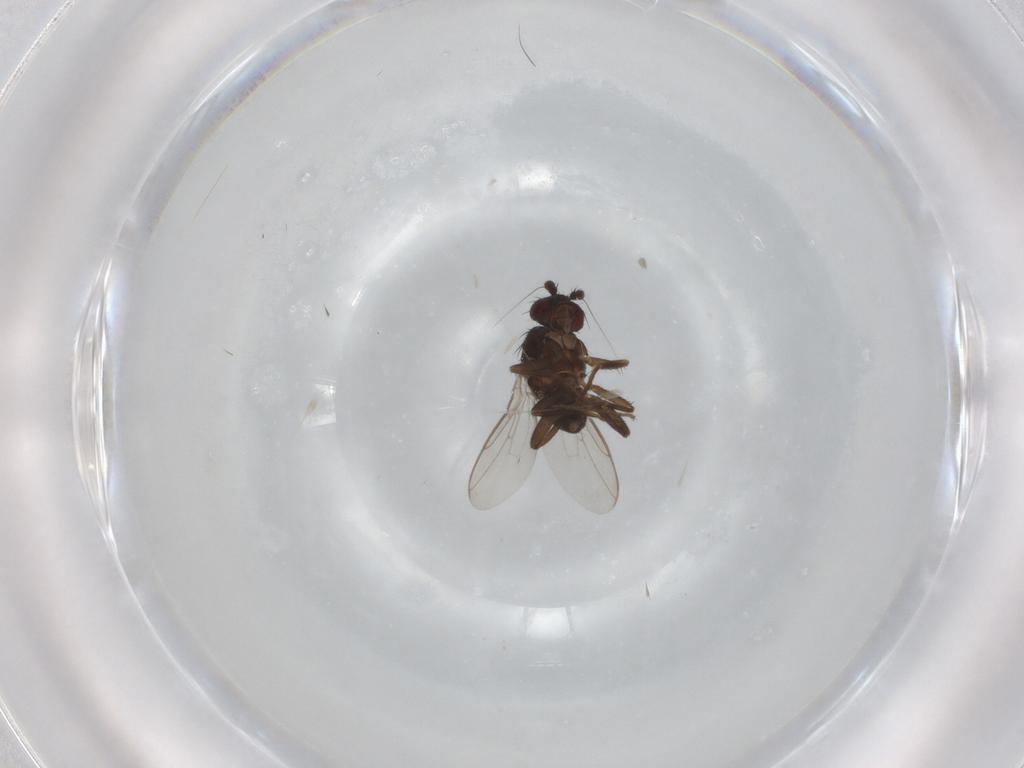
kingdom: Animalia
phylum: Arthropoda
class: Insecta
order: Diptera
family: Sphaeroceridae
